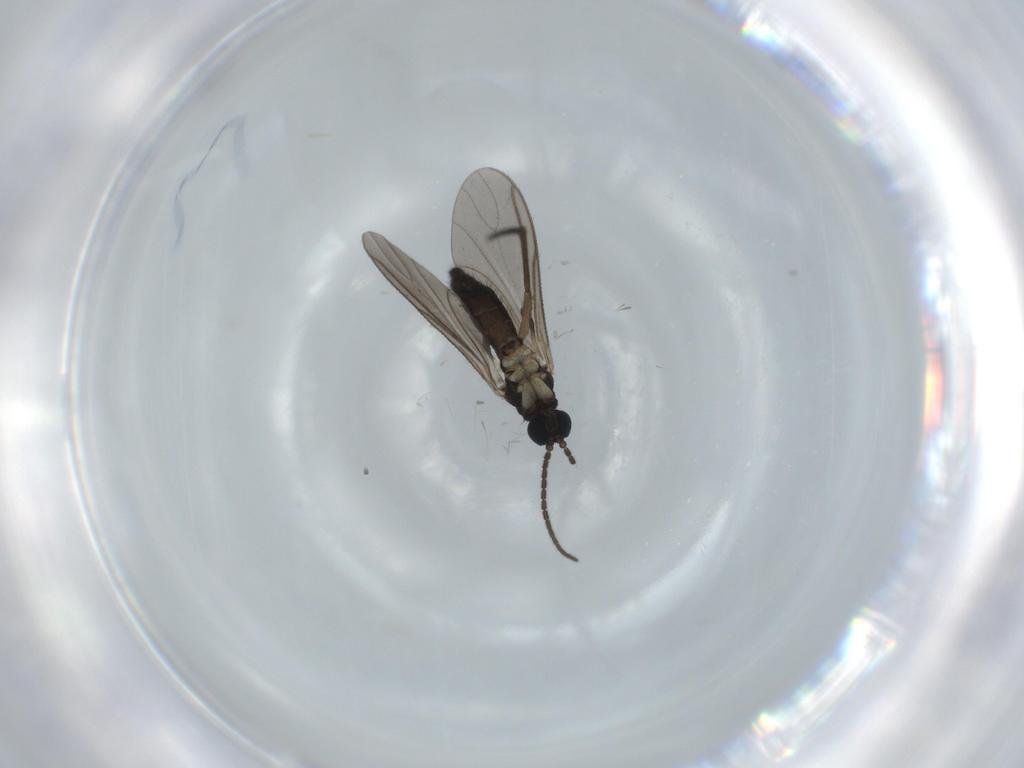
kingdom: Animalia
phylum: Arthropoda
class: Insecta
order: Diptera
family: Sciaridae
